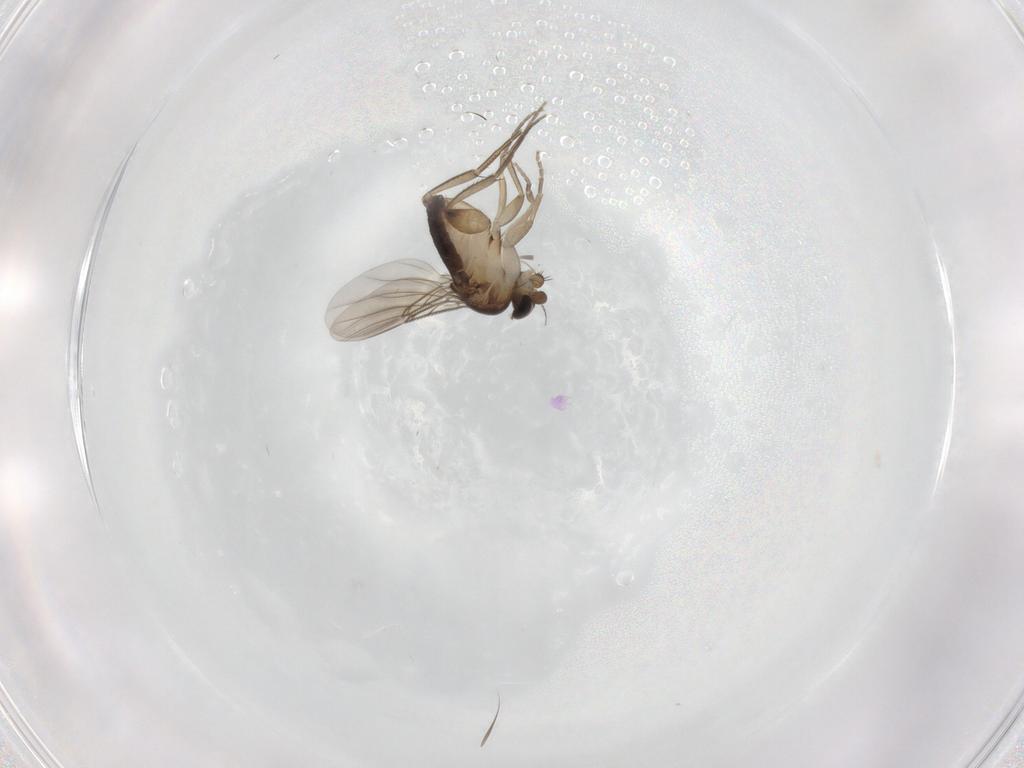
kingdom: Animalia
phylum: Arthropoda
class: Insecta
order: Diptera
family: Phoridae
